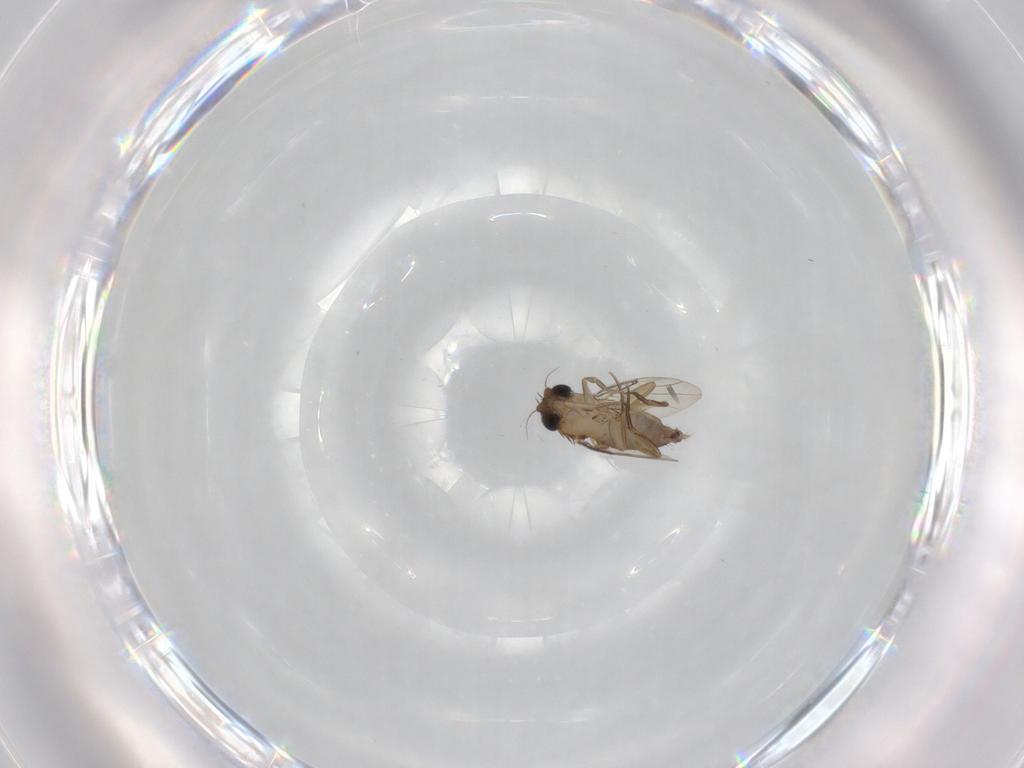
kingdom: Animalia
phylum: Arthropoda
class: Insecta
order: Diptera
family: Phoridae
